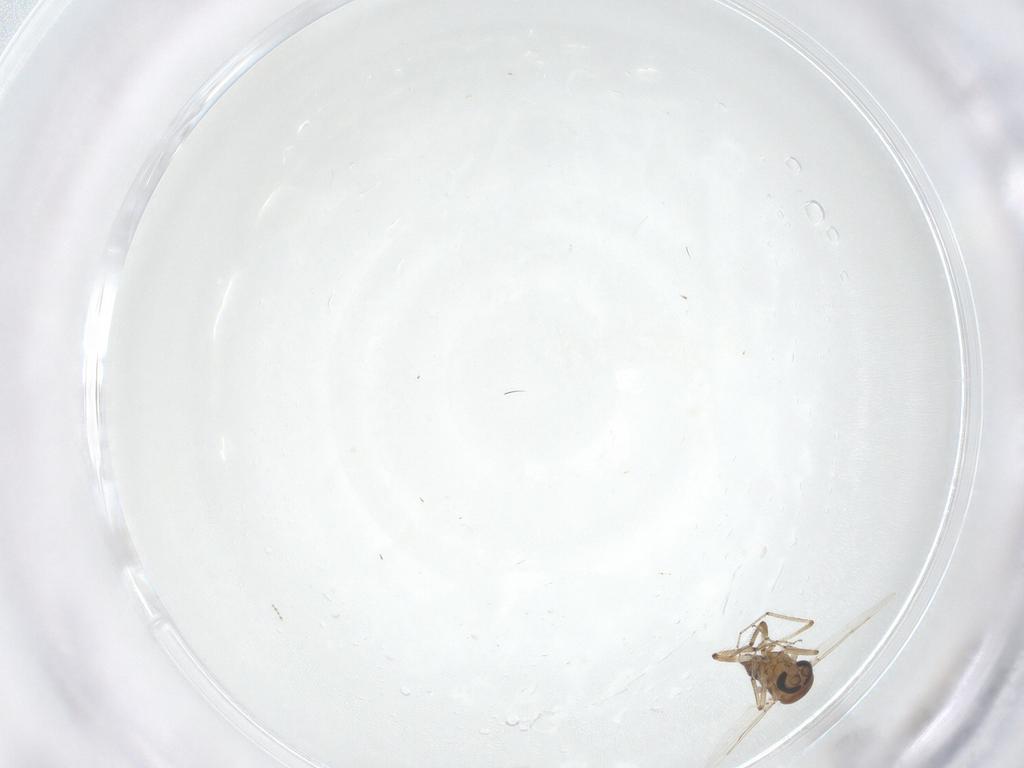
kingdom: Animalia
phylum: Arthropoda
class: Insecta
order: Diptera
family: Ceratopogonidae
